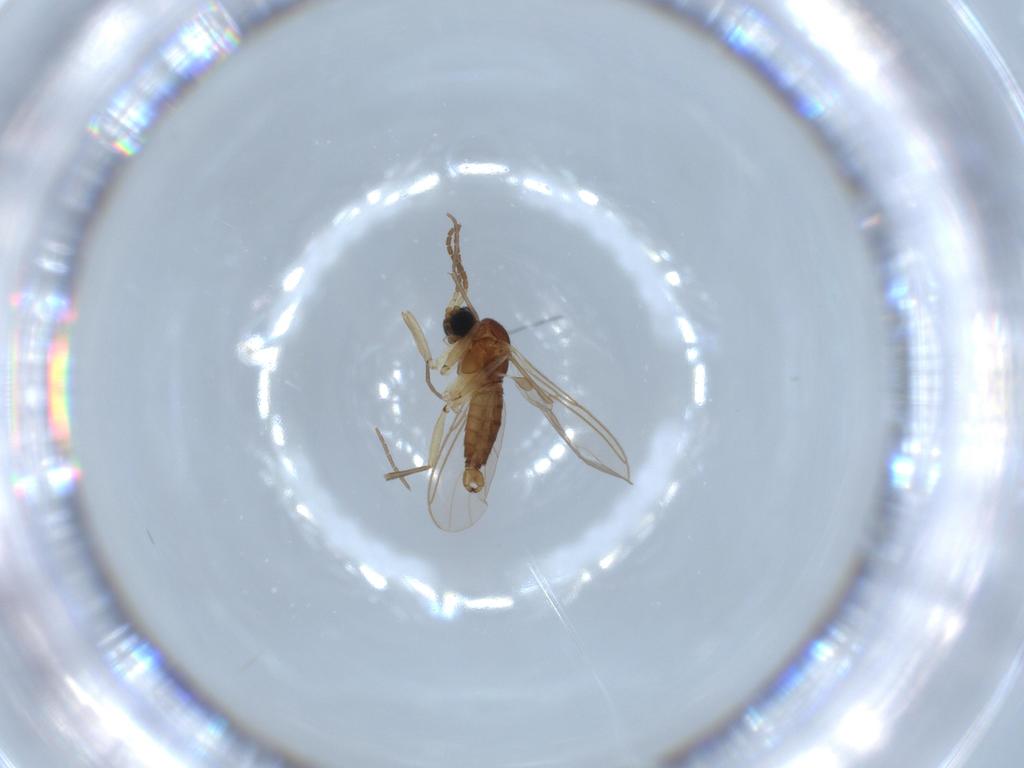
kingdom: Animalia
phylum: Arthropoda
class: Insecta
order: Diptera
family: Sciaridae
